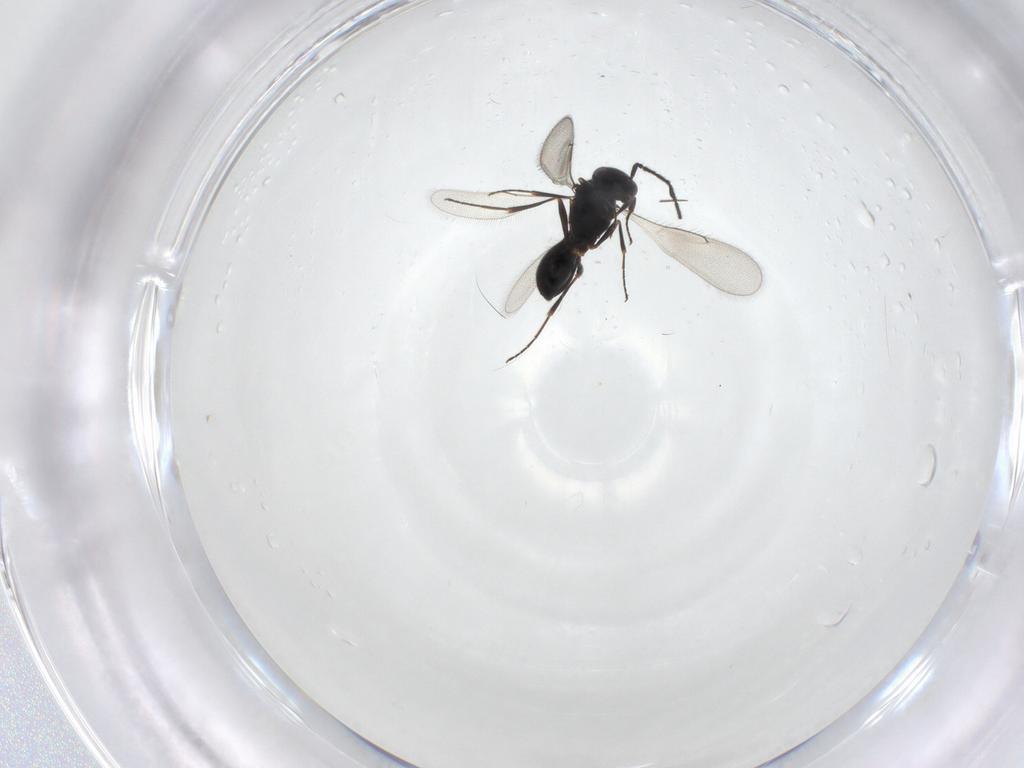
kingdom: Animalia
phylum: Arthropoda
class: Insecta
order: Hymenoptera
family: Scelionidae
